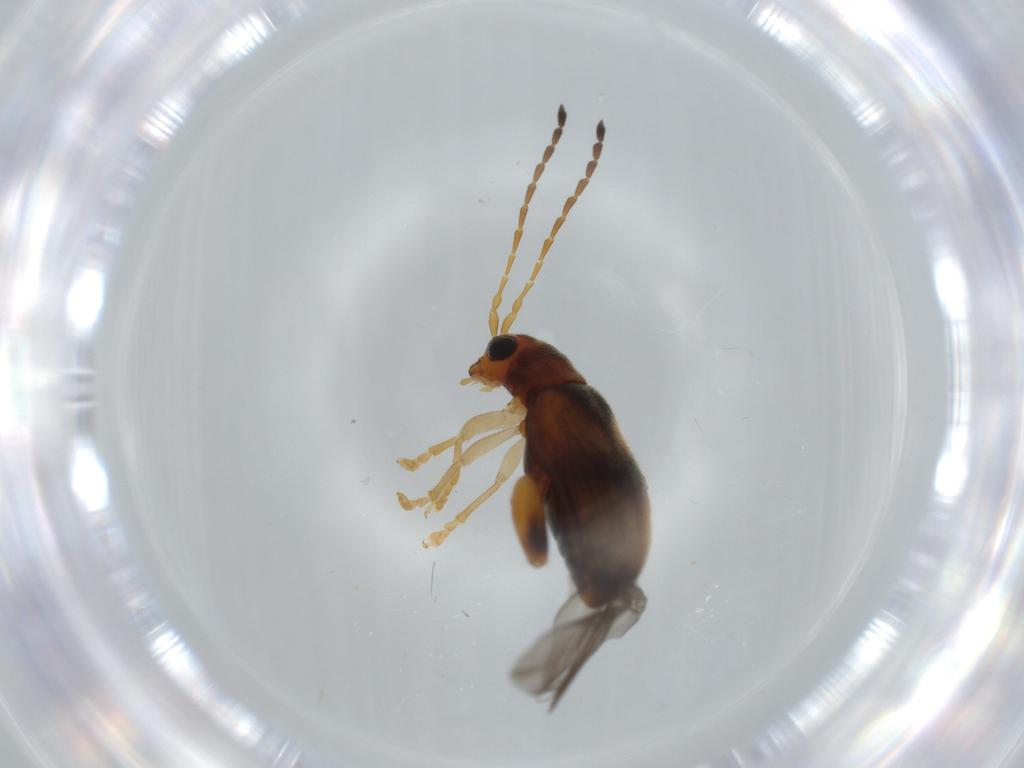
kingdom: Animalia
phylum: Arthropoda
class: Insecta
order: Coleoptera
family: Chrysomelidae
